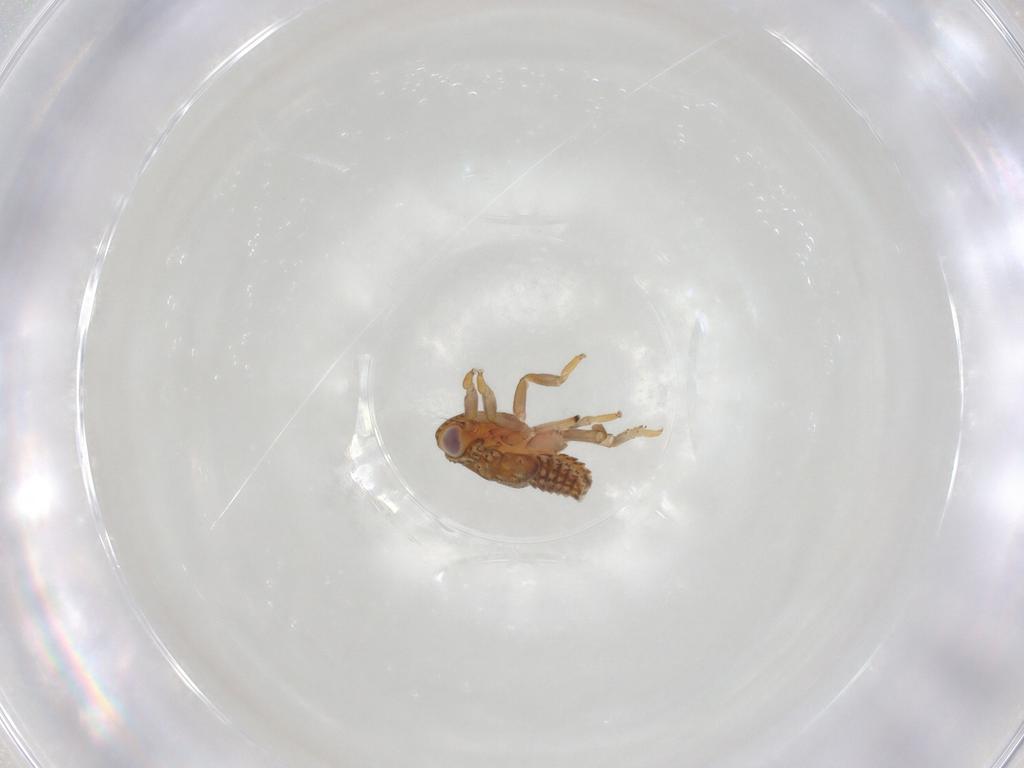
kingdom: Animalia
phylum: Arthropoda
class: Insecta
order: Hemiptera
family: Issidae
